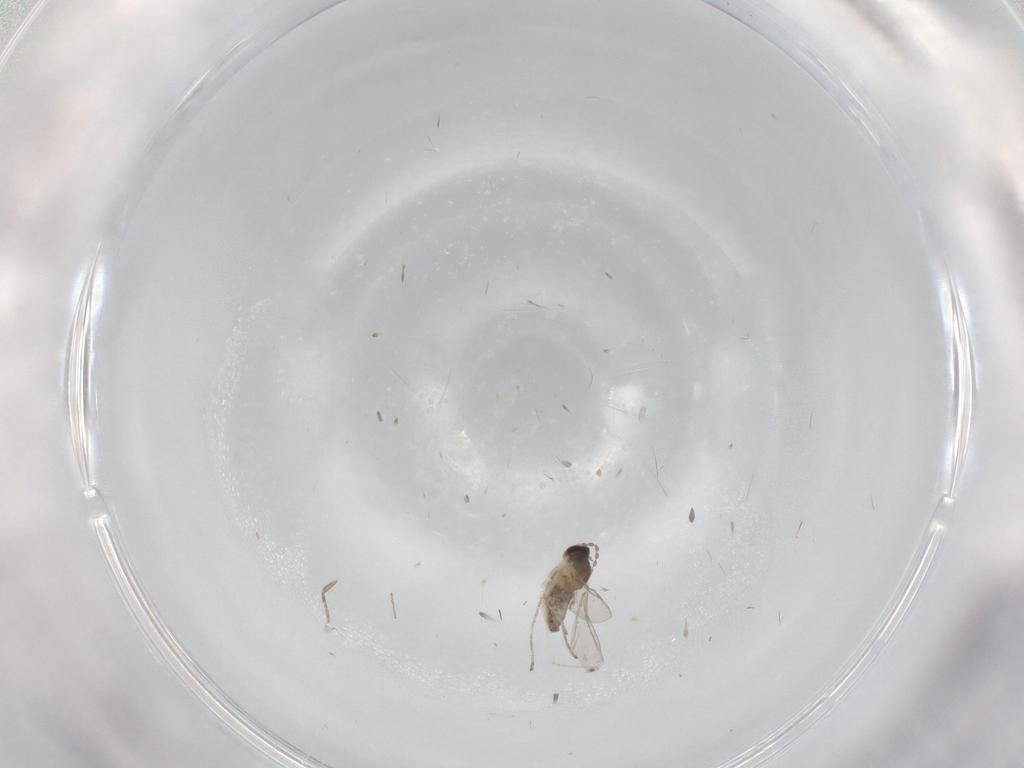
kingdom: Animalia
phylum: Arthropoda
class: Insecta
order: Diptera
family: Cecidomyiidae
